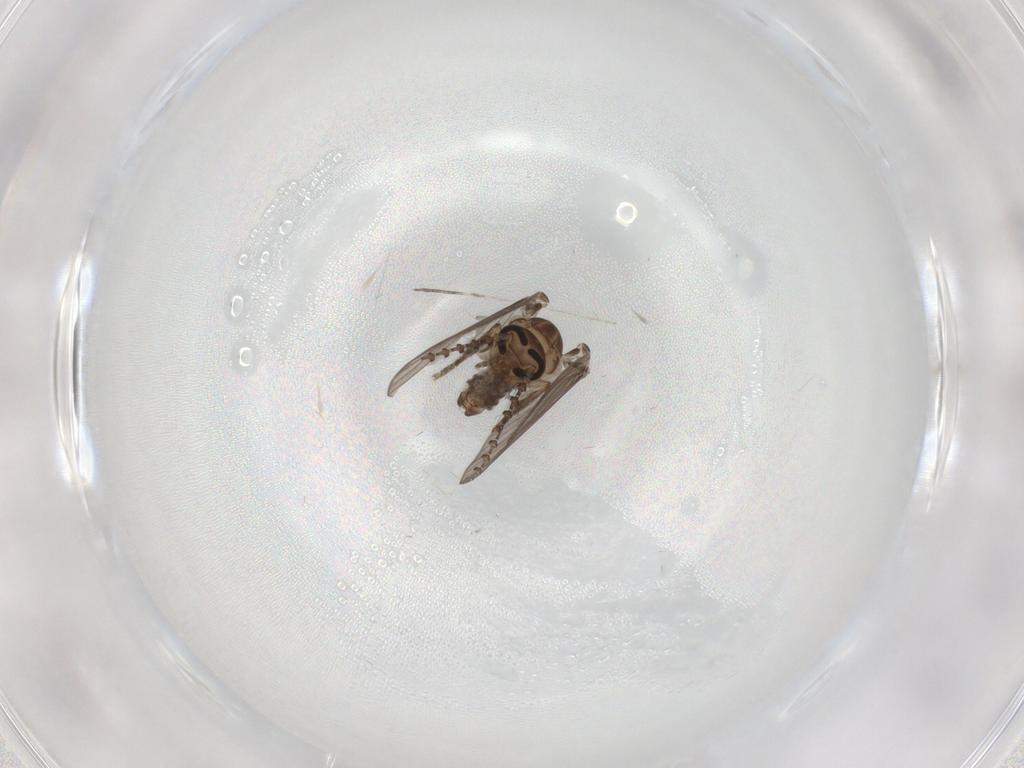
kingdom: Animalia
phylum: Arthropoda
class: Insecta
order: Diptera
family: Psychodidae
